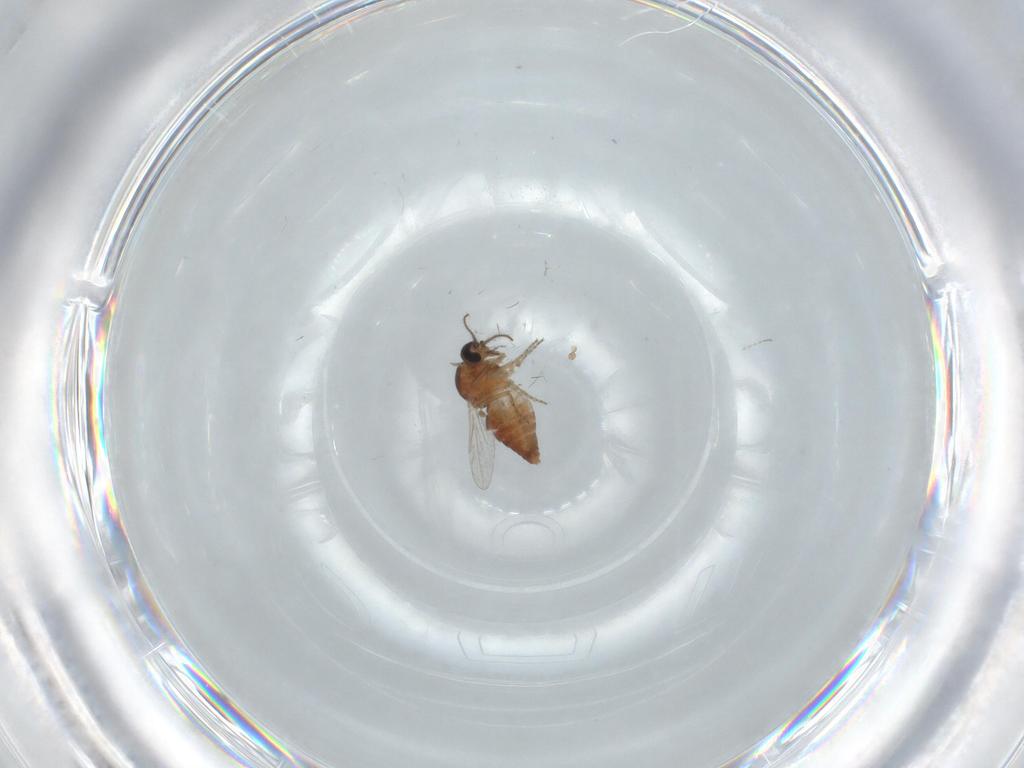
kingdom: Animalia
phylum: Arthropoda
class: Insecta
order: Diptera
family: Ceratopogonidae
